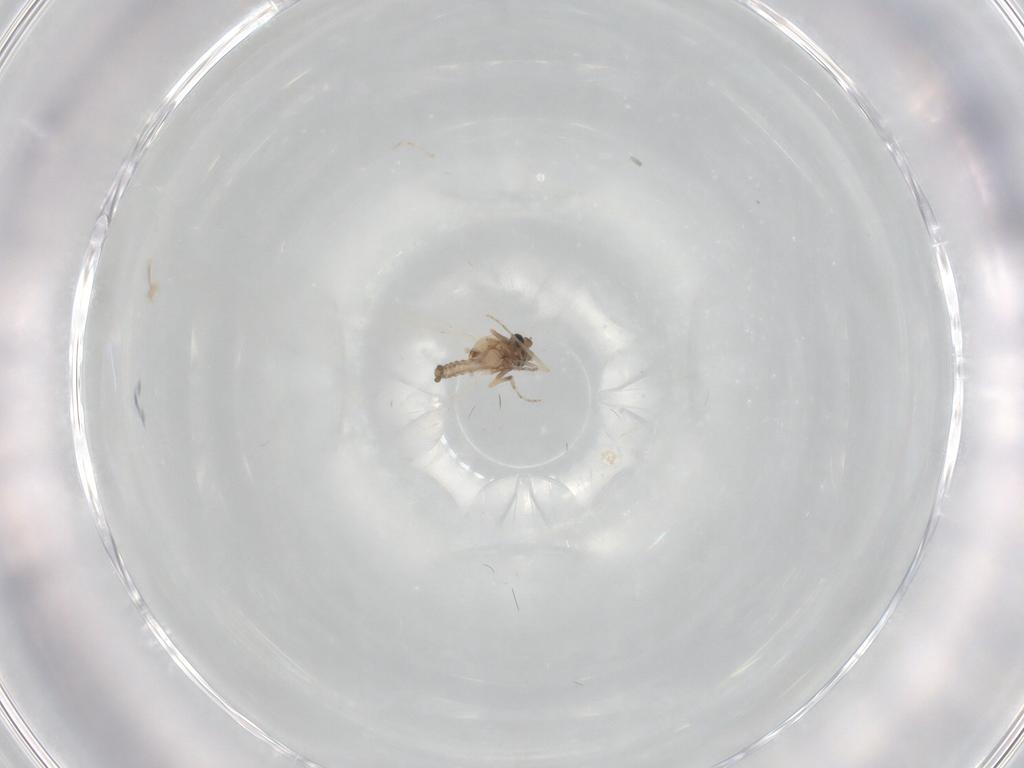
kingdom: Animalia
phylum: Arthropoda
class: Insecta
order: Diptera
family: Ceratopogonidae
